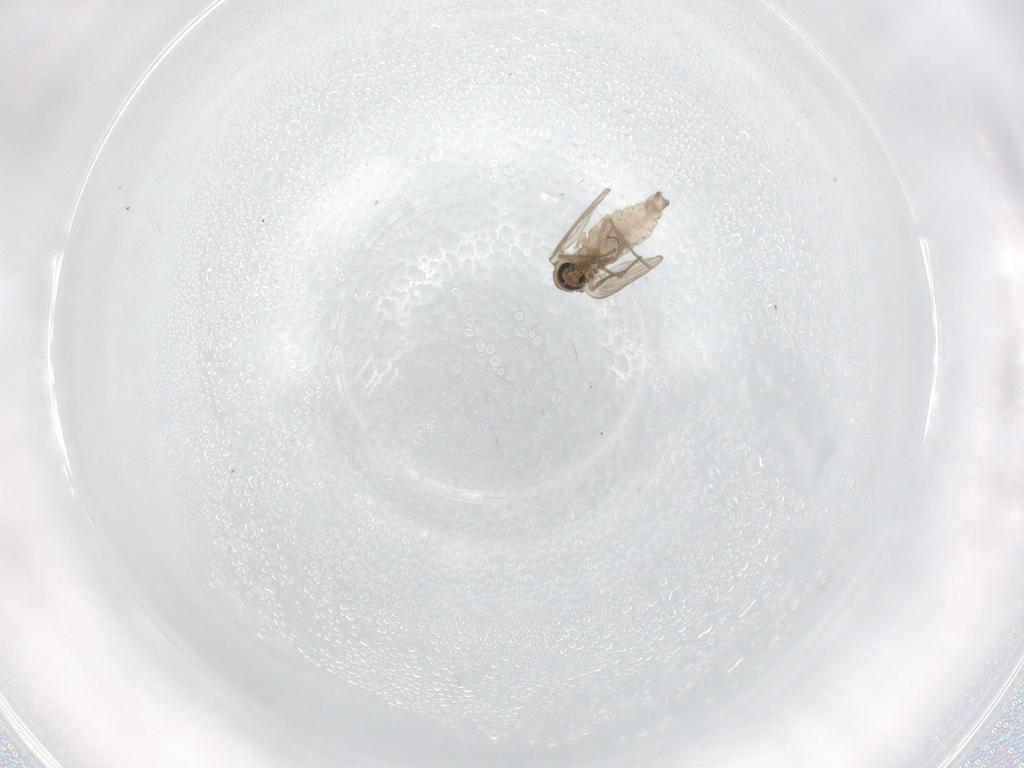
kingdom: Animalia
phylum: Arthropoda
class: Insecta
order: Diptera
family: Psychodidae
